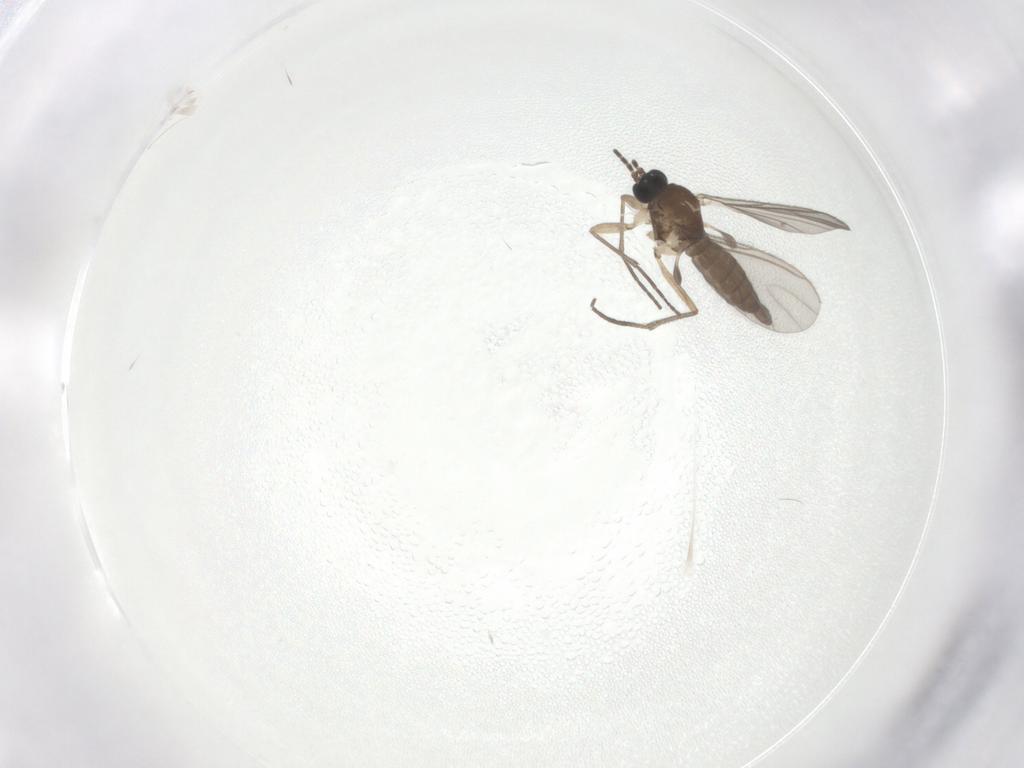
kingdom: Animalia
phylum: Arthropoda
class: Insecta
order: Diptera
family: Sciaridae
